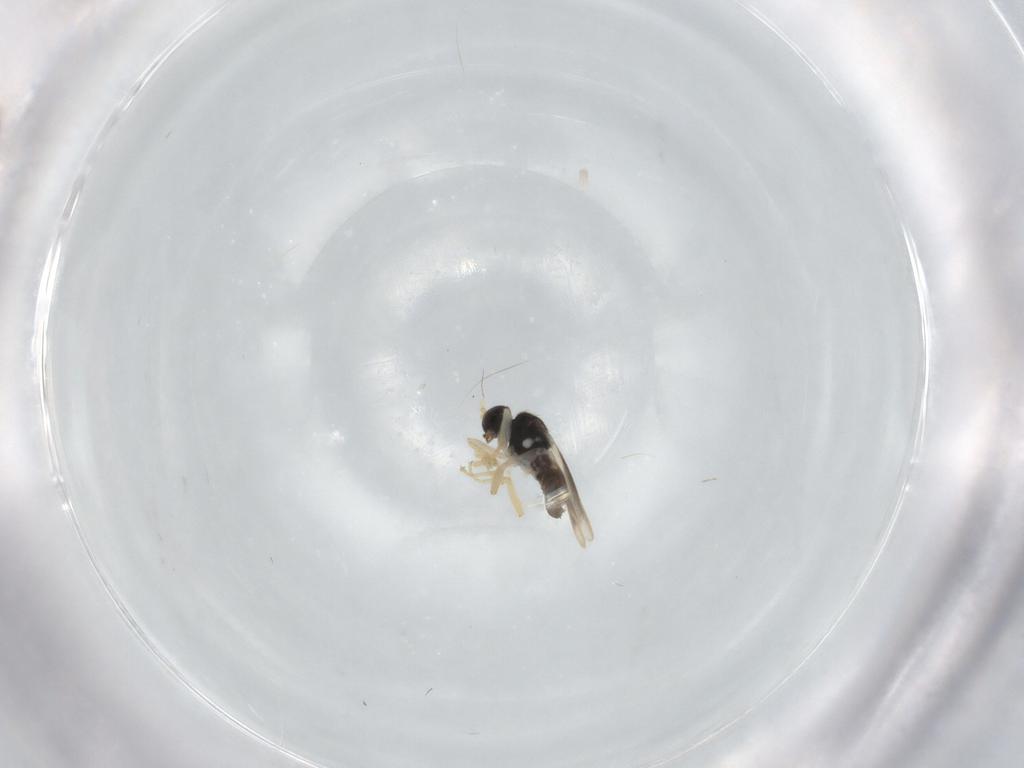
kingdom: Animalia
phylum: Arthropoda
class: Insecta
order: Diptera
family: Hybotidae
